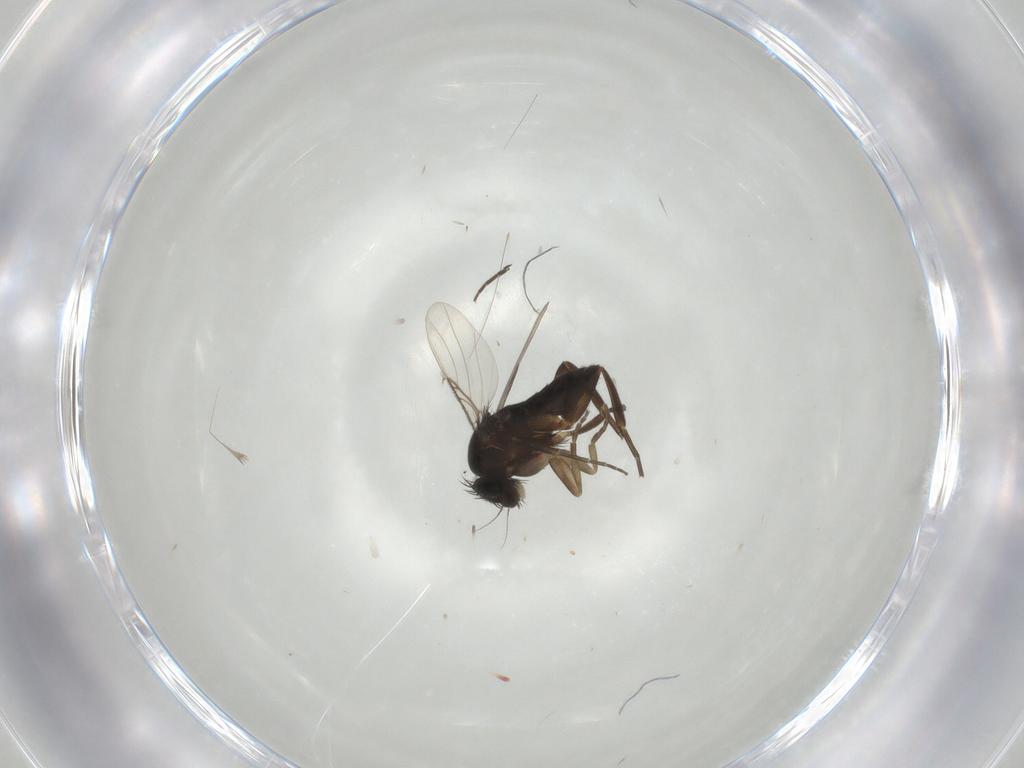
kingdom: Animalia
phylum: Arthropoda
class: Insecta
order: Diptera
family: Phoridae
